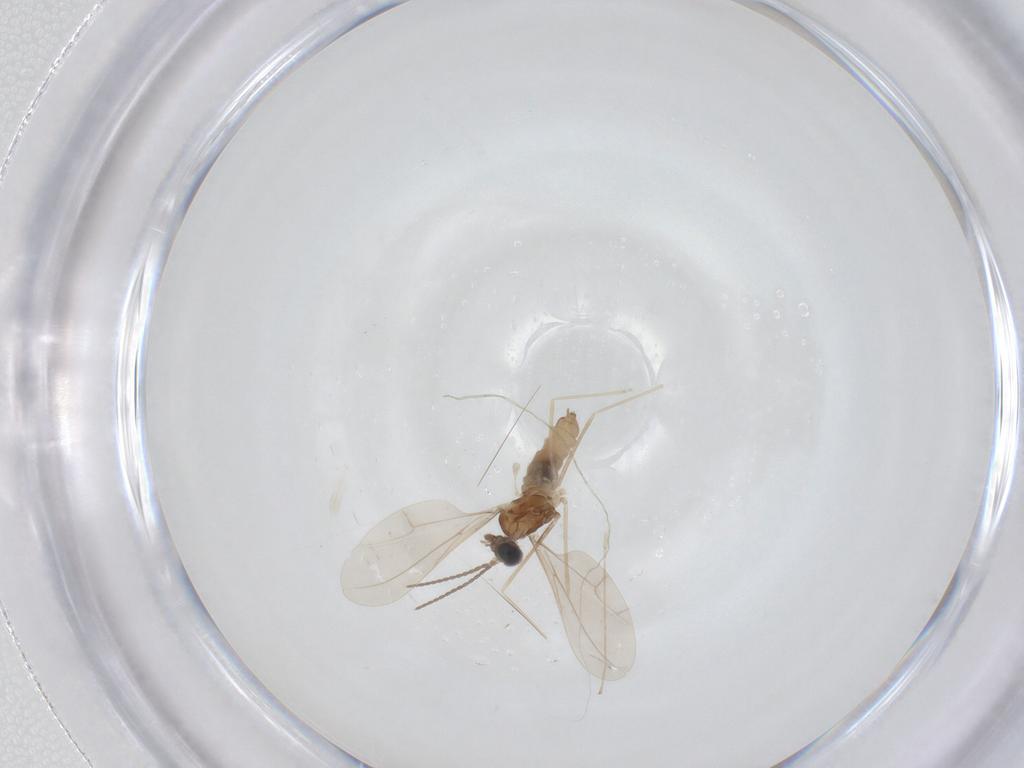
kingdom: Animalia
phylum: Arthropoda
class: Insecta
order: Diptera
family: Cecidomyiidae
